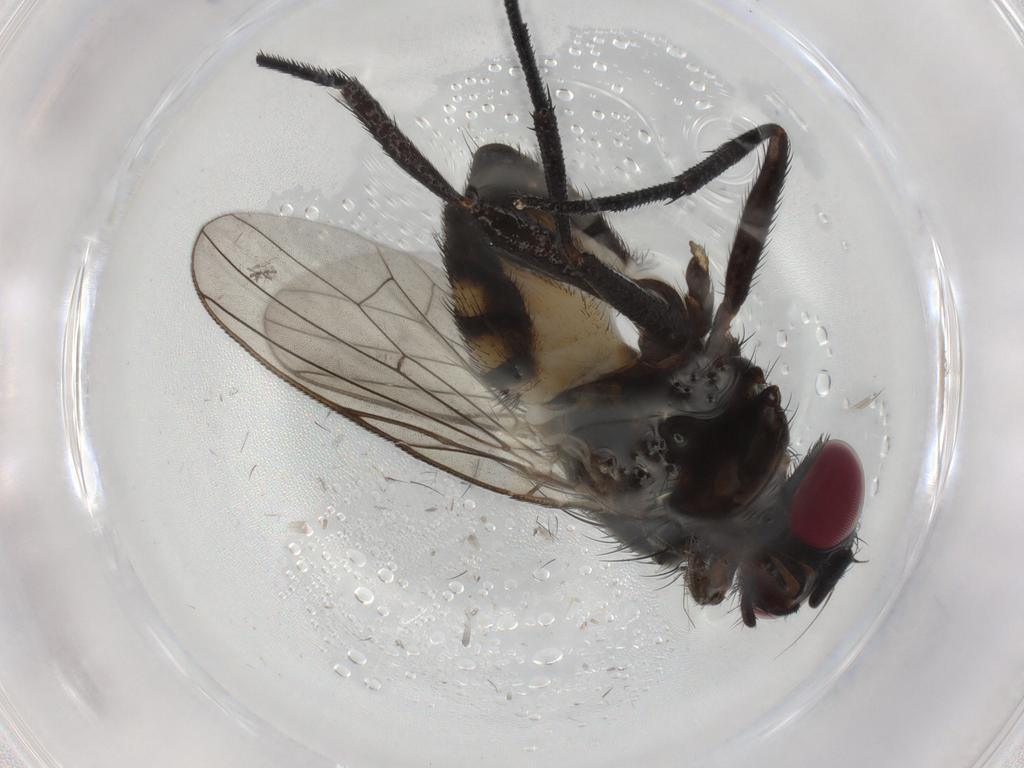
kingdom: Animalia
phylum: Arthropoda
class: Insecta
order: Diptera
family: Fannia
